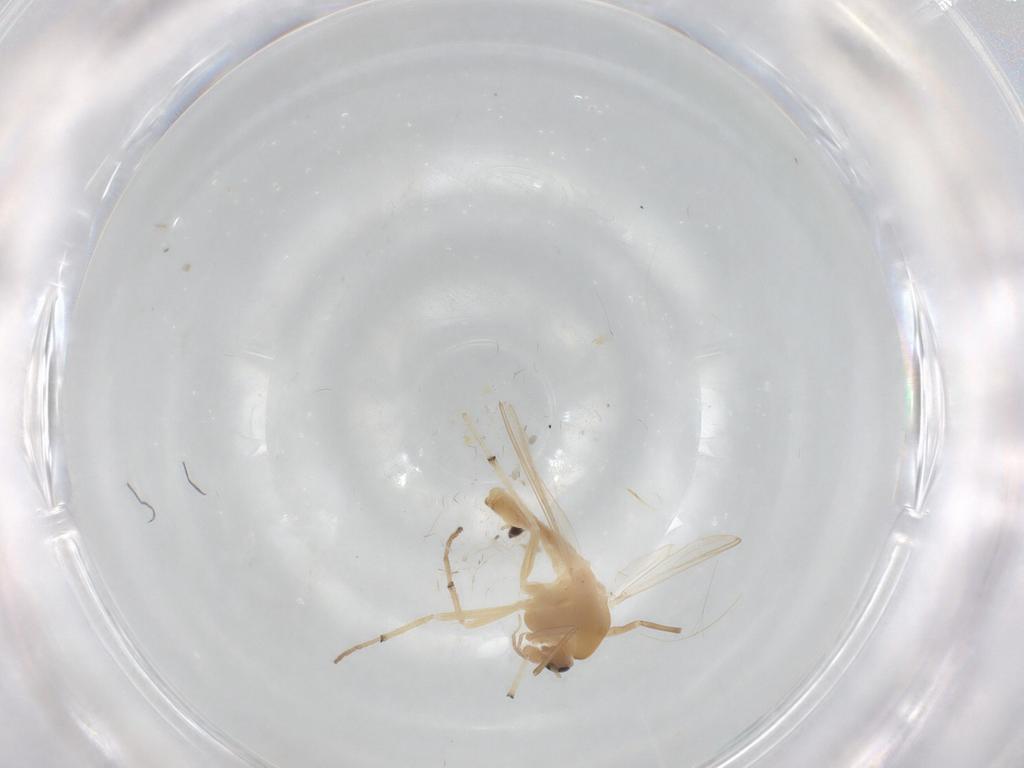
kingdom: Animalia
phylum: Arthropoda
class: Insecta
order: Diptera
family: Chironomidae
